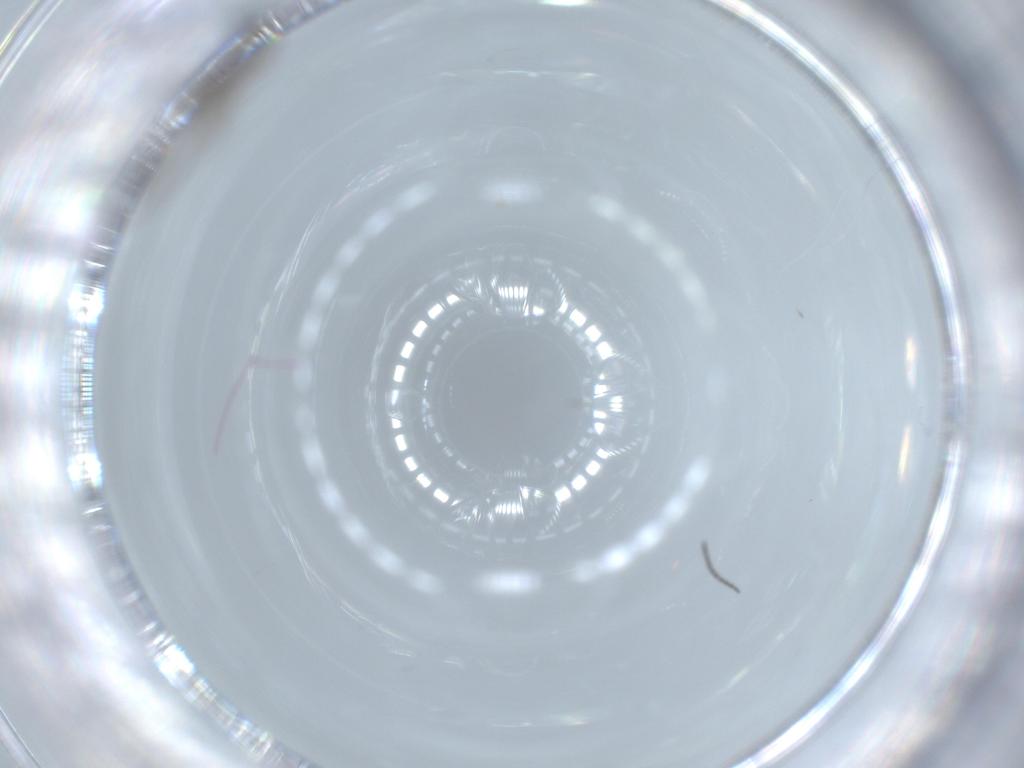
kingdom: Animalia
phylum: Arthropoda
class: Insecta
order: Diptera
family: Sciaridae
